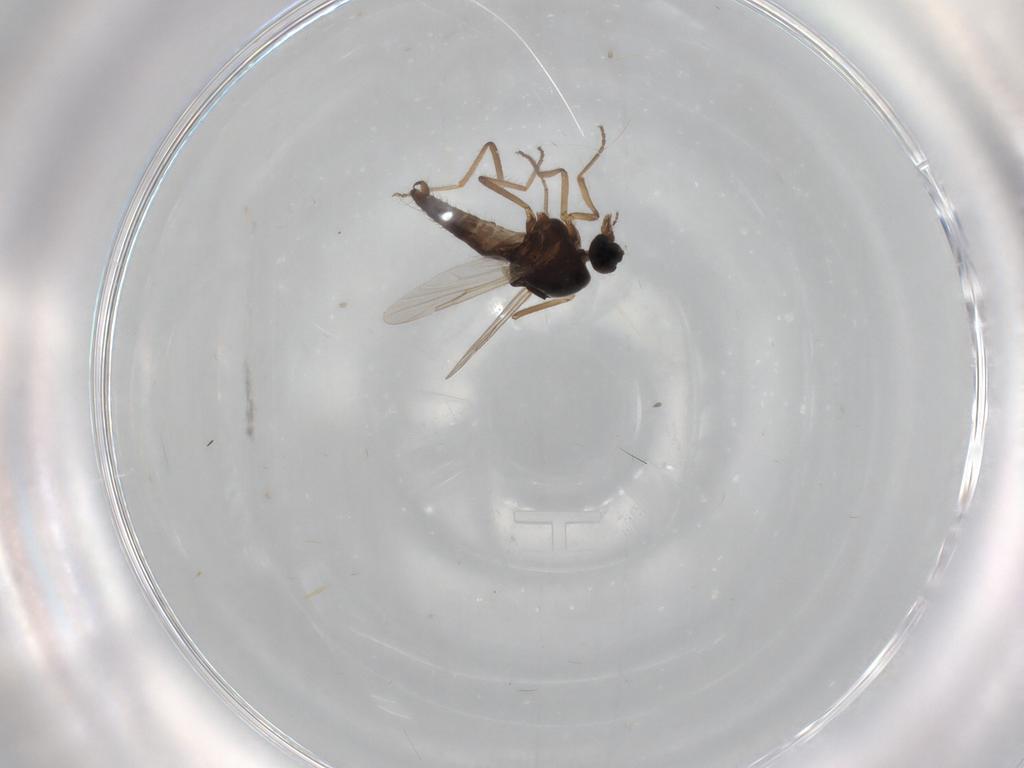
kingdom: Animalia
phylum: Arthropoda
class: Insecta
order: Diptera
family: Ceratopogonidae
